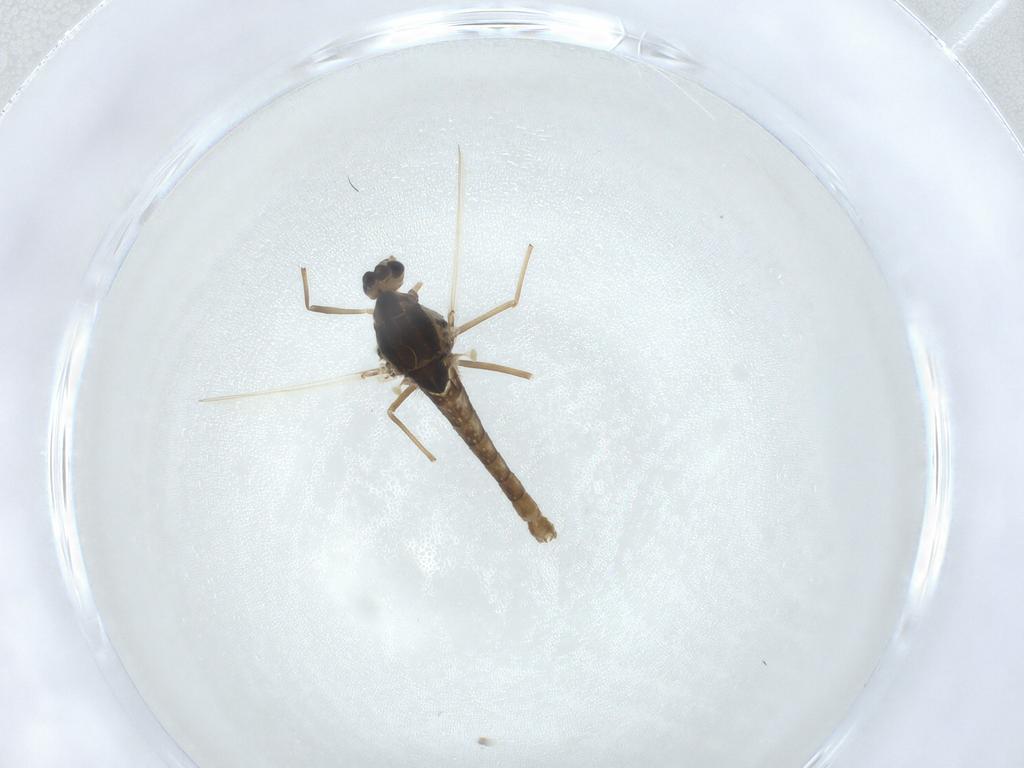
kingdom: Animalia
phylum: Arthropoda
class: Insecta
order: Diptera
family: Chironomidae
